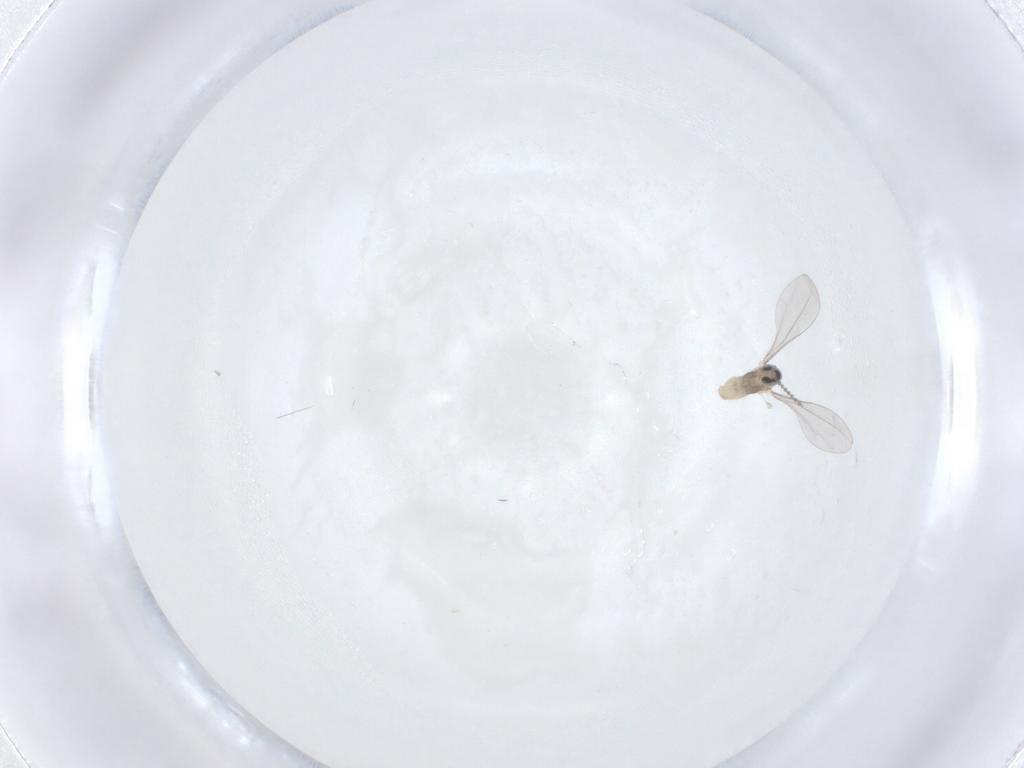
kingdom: Animalia
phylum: Arthropoda
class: Insecta
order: Diptera
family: Cecidomyiidae
